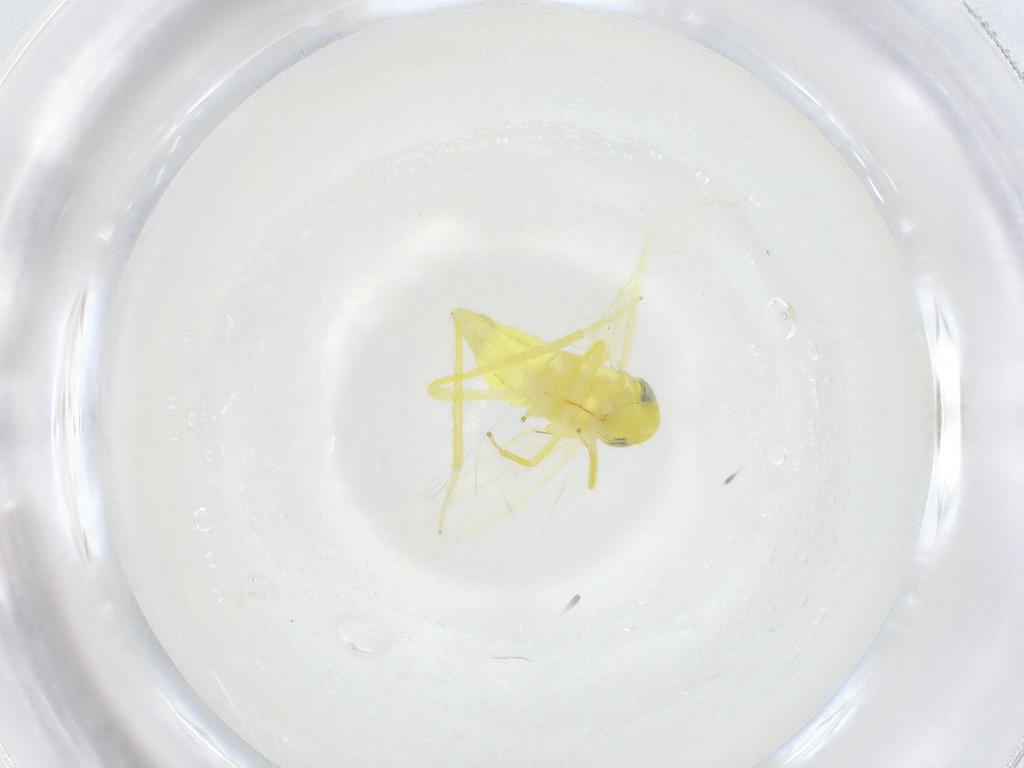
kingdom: Animalia
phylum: Arthropoda
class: Insecta
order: Hemiptera
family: Cicadellidae
